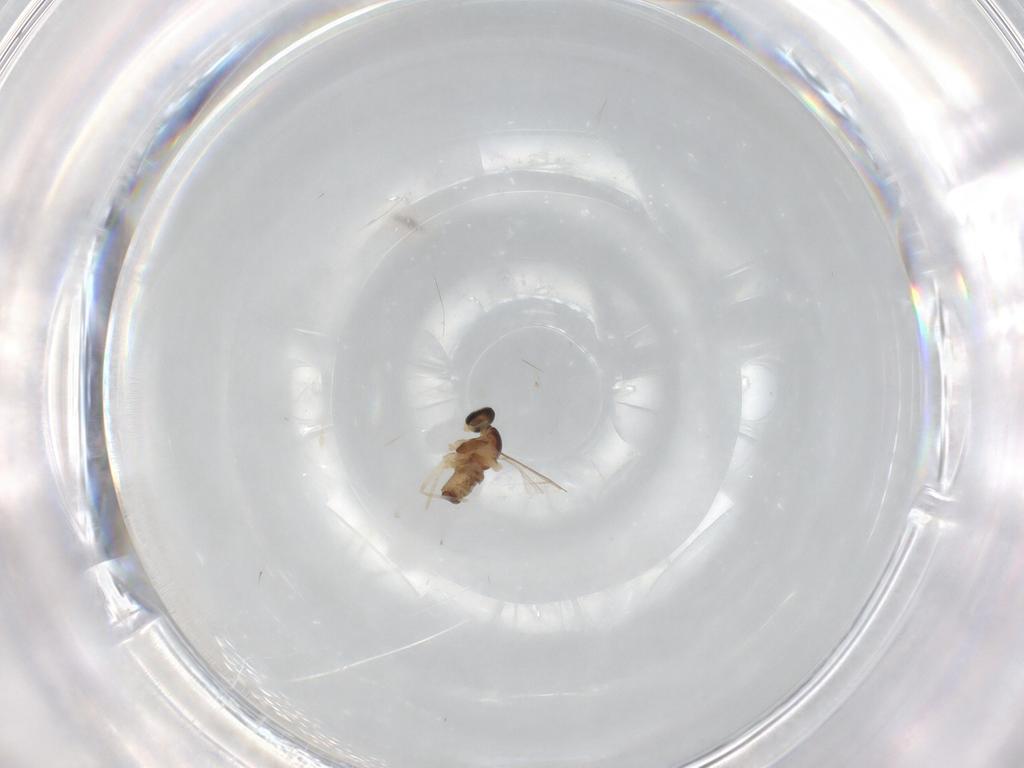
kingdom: Animalia
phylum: Arthropoda
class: Insecta
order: Diptera
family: Cecidomyiidae
